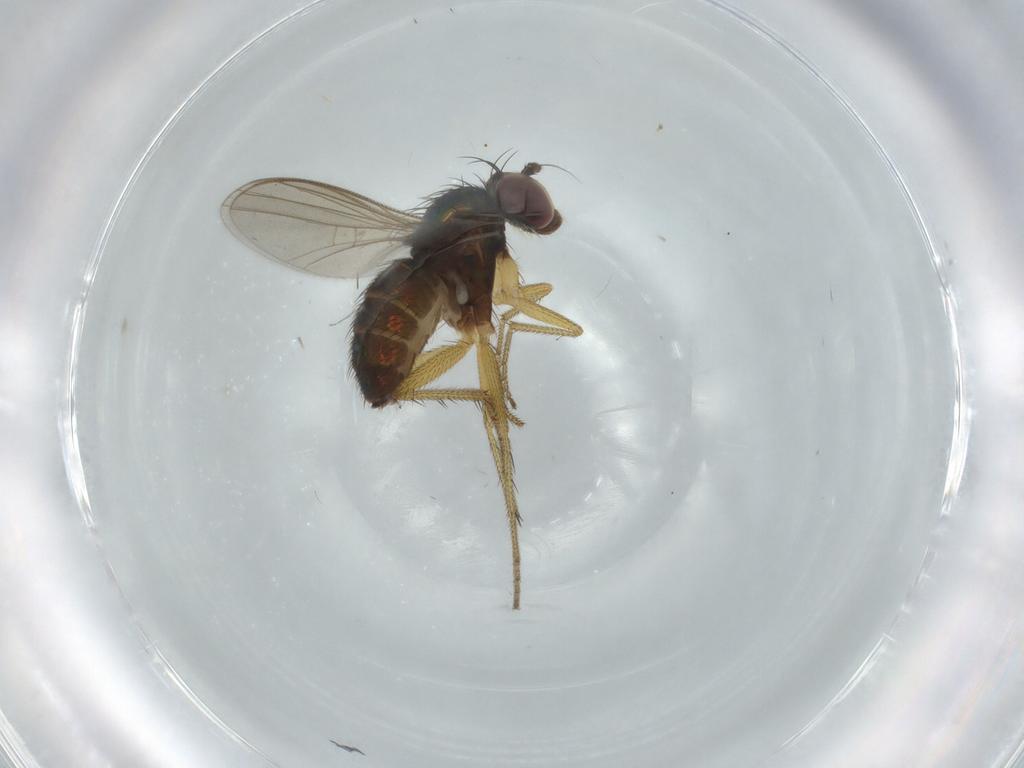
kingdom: Animalia
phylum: Arthropoda
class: Insecta
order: Diptera
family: Dolichopodidae
